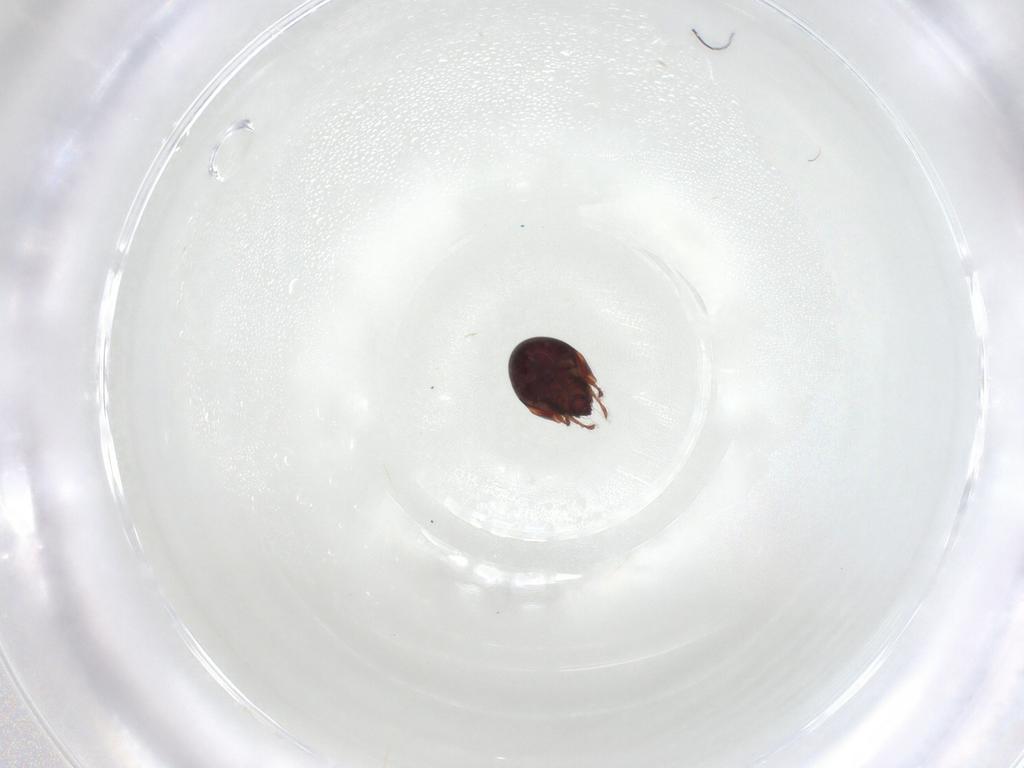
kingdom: Animalia
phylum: Arthropoda
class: Arachnida
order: Sarcoptiformes
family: Humerobatidae
